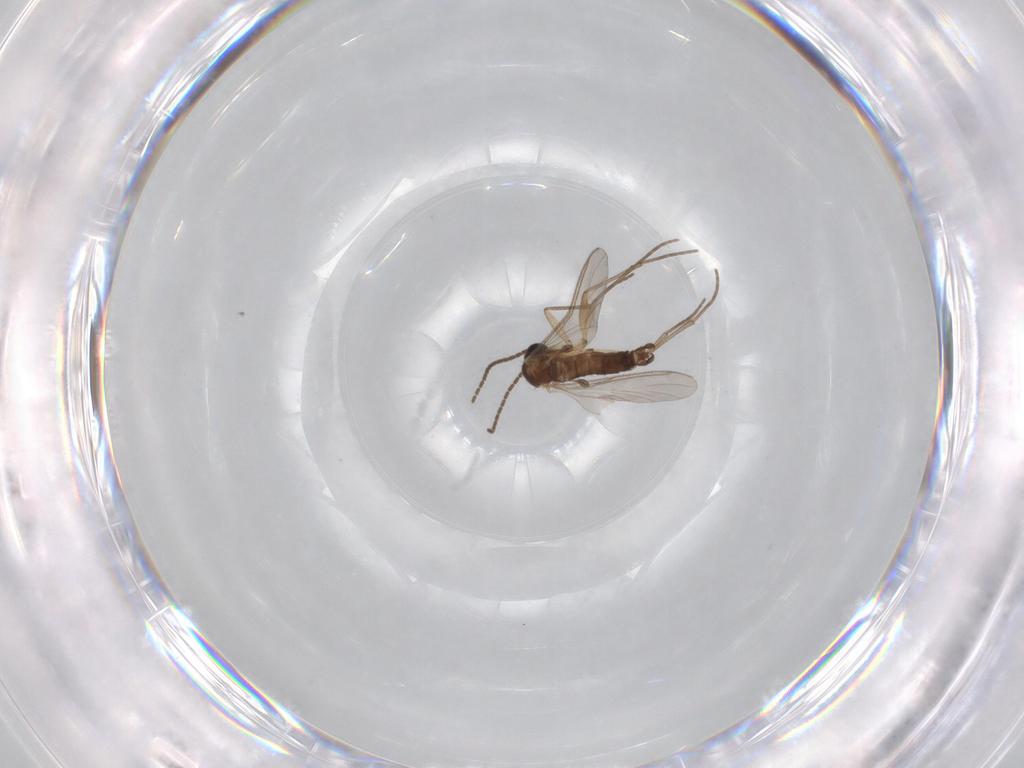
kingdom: Animalia
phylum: Arthropoda
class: Insecta
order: Diptera
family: Sciaridae
